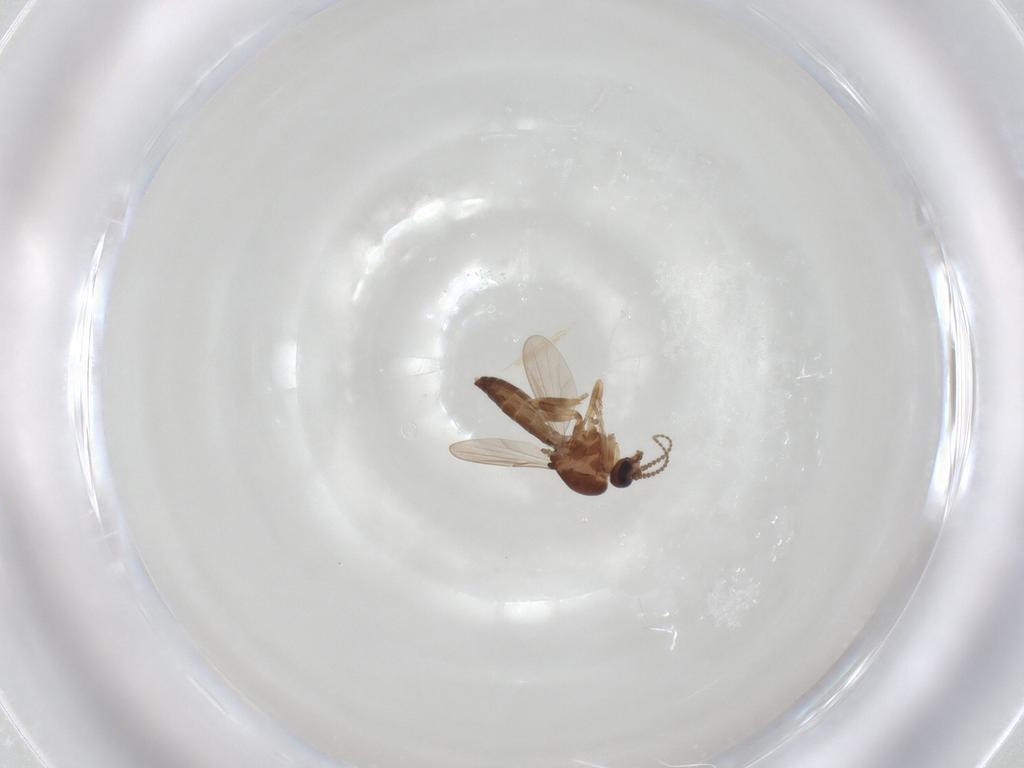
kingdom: Animalia
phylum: Arthropoda
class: Insecta
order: Diptera
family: Ceratopogonidae
